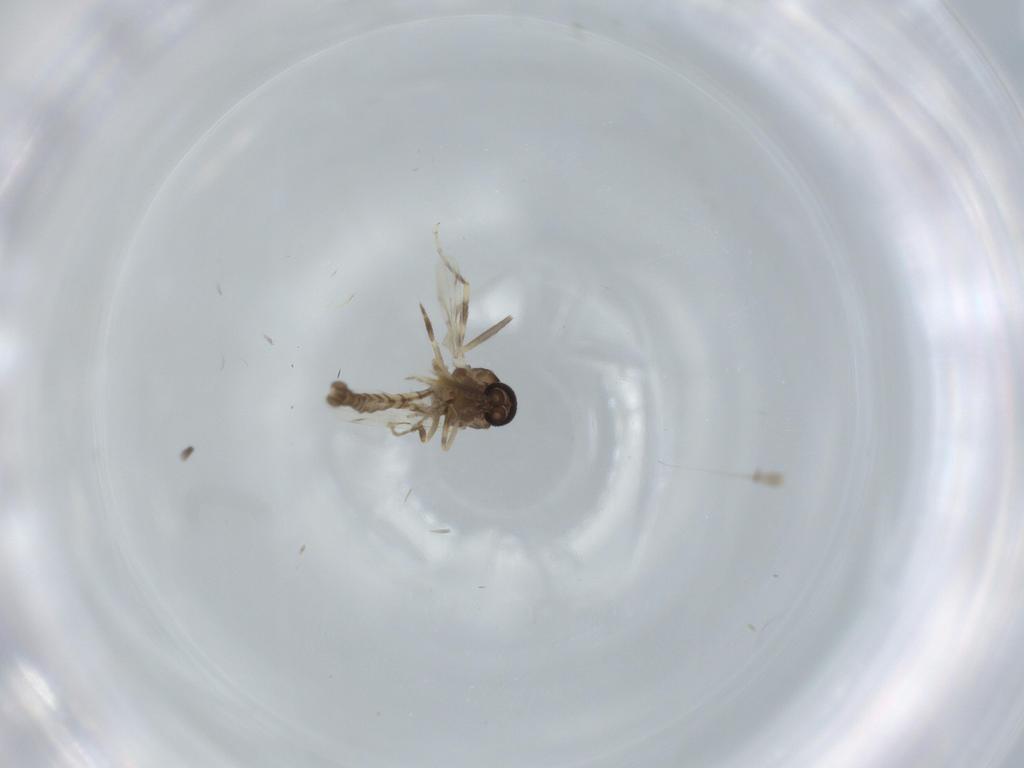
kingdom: Animalia
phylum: Arthropoda
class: Insecta
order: Diptera
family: Ceratopogonidae
